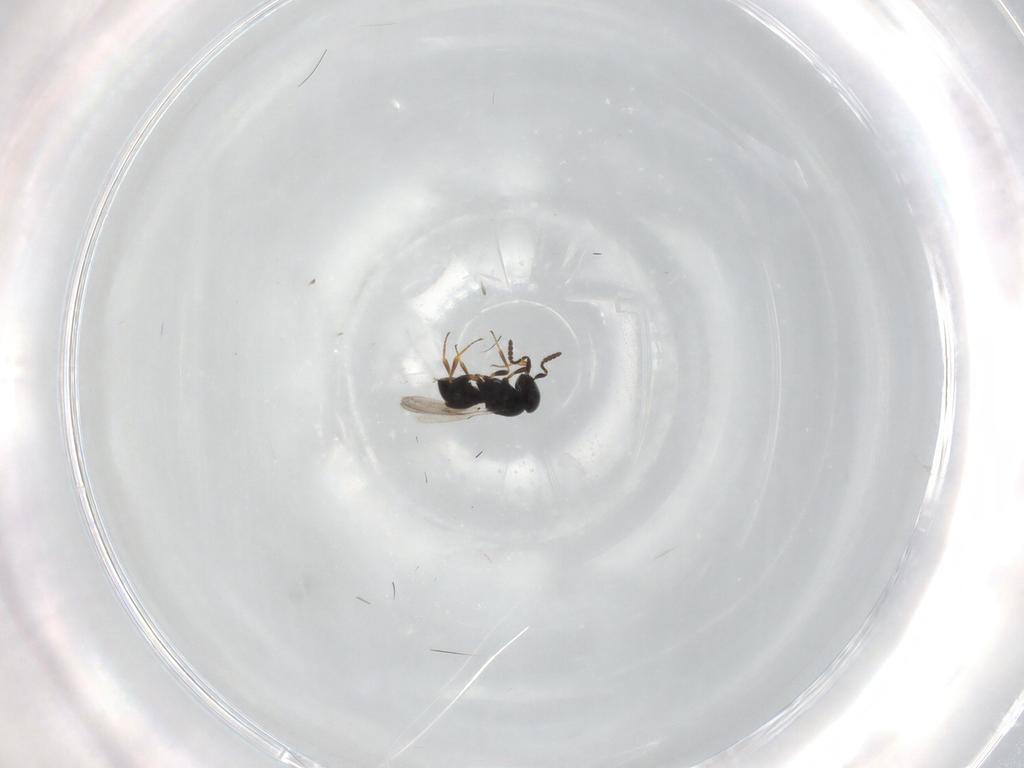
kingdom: Animalia
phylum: Arthropoda
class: Insecta
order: Hymenoptera
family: Scelionidae
